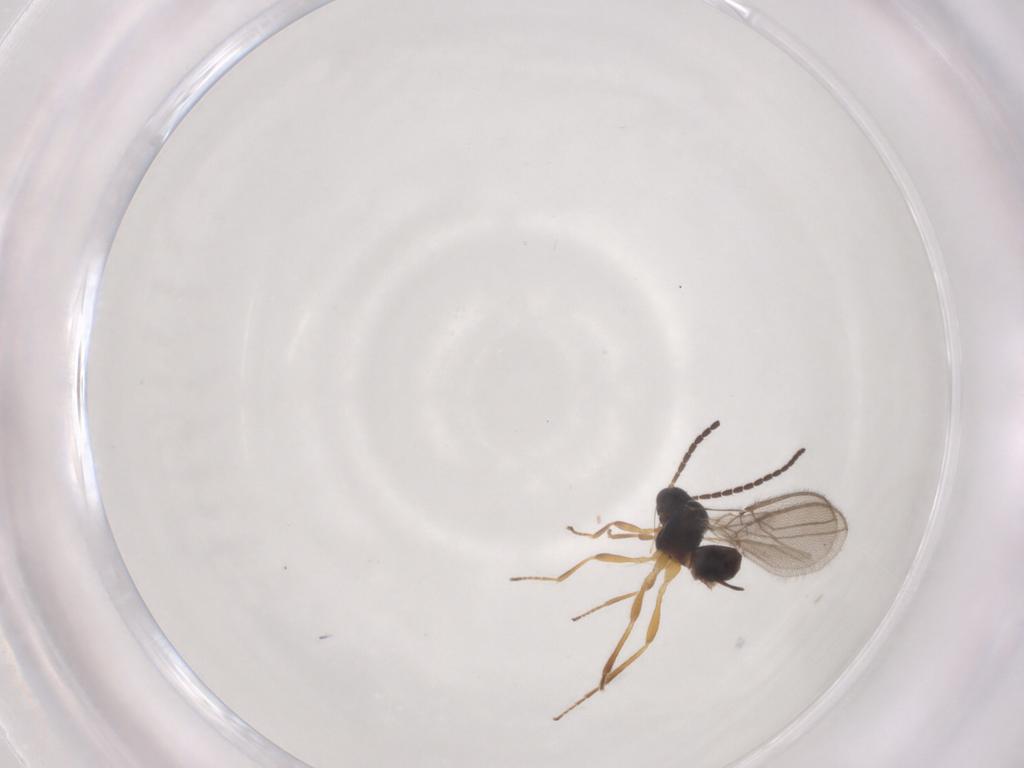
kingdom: Animalia
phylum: Arthropoda
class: Insecta
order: Hymenoptera
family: Braconidae
